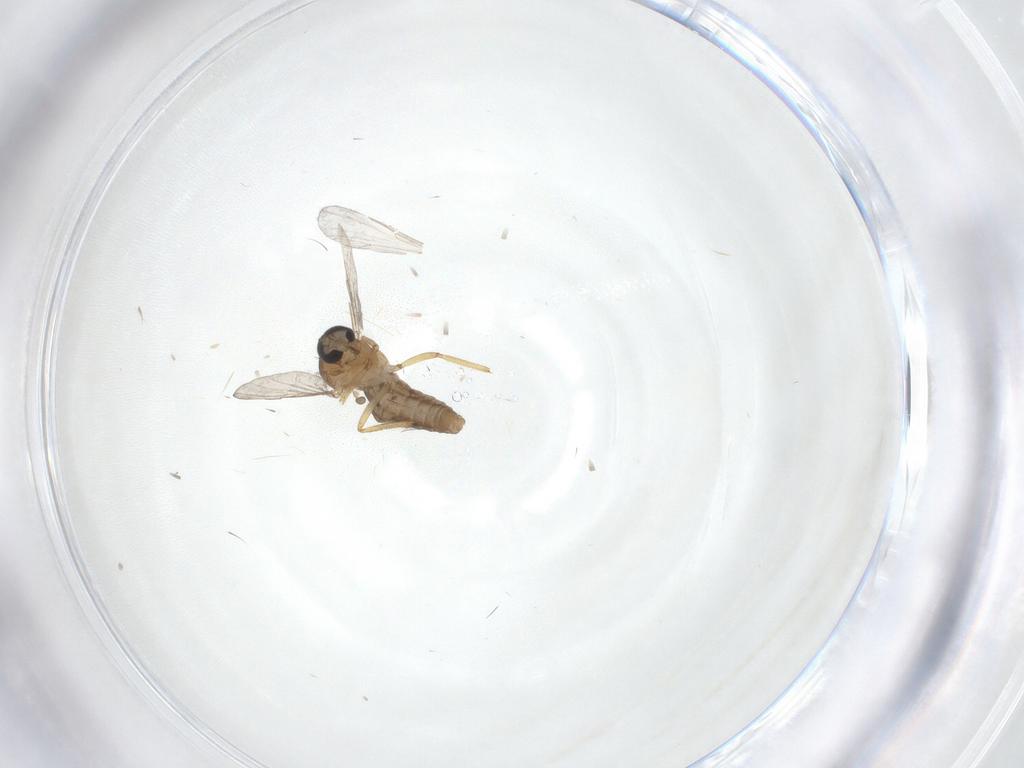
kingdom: Animalia
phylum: Arthropoda
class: Insecta
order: Diptera
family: Ceratopogonidae
